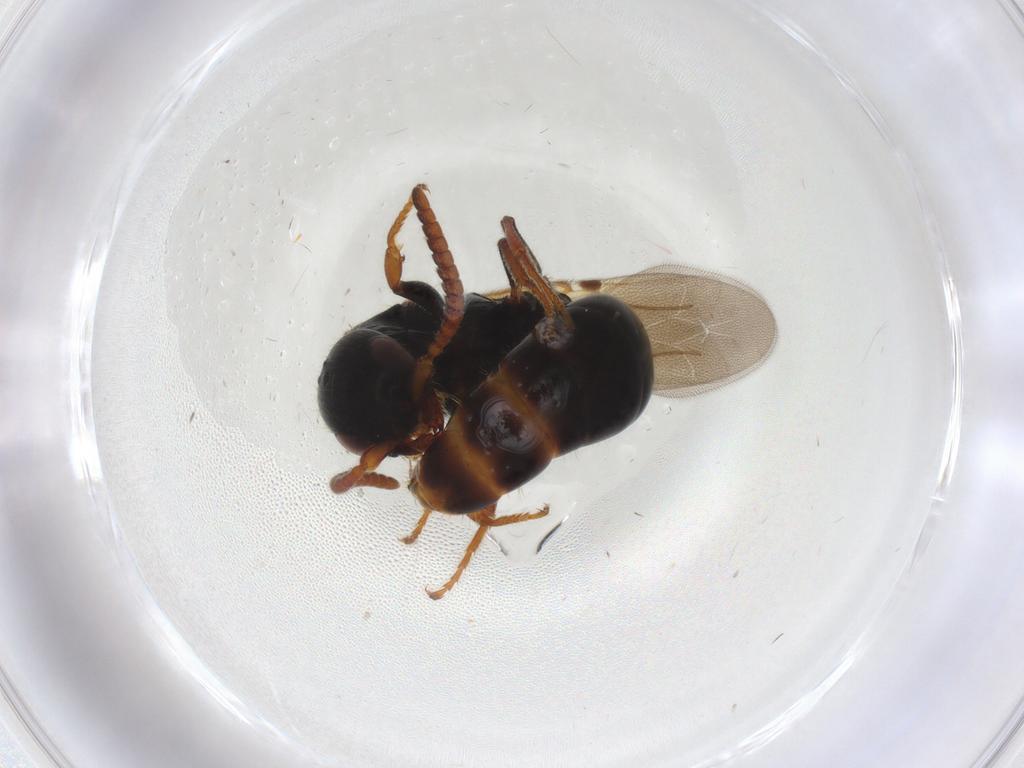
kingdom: Animalia
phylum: Arthropoda
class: Insecta
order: Hymenoptera
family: Bethylidae
